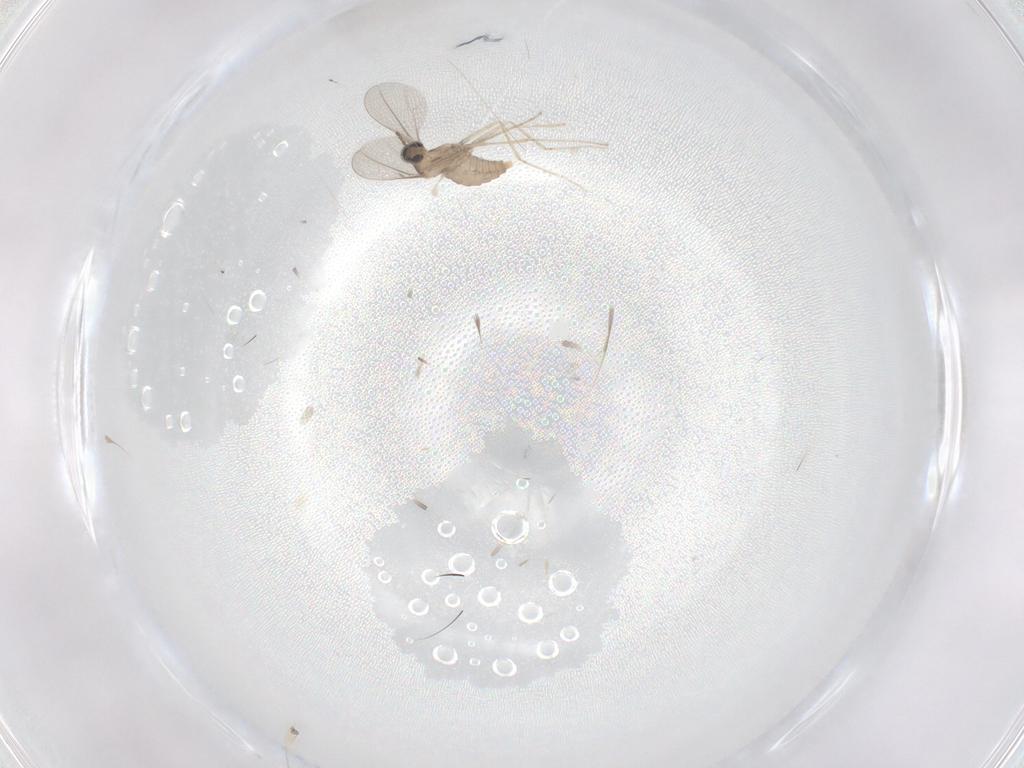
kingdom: Animalia
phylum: Arthropoda
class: Insecta
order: Diptera
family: Cecidomyiidae
